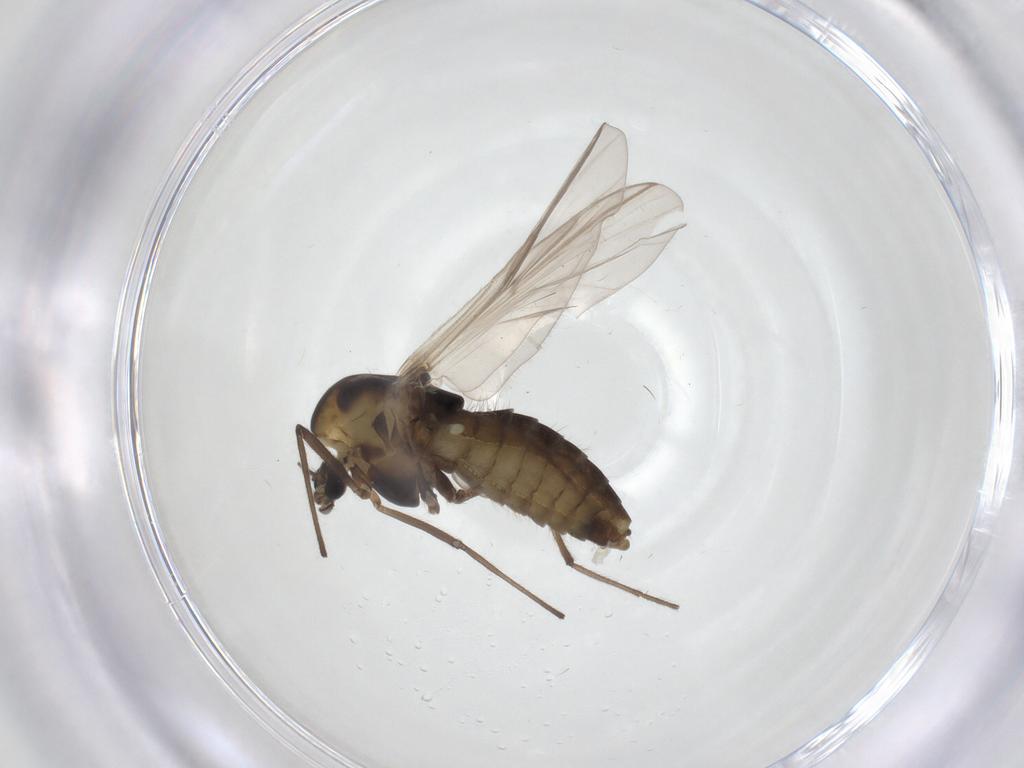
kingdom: Animalia
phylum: Arthropoda
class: Insecta
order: Diptera
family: Chironomidae
